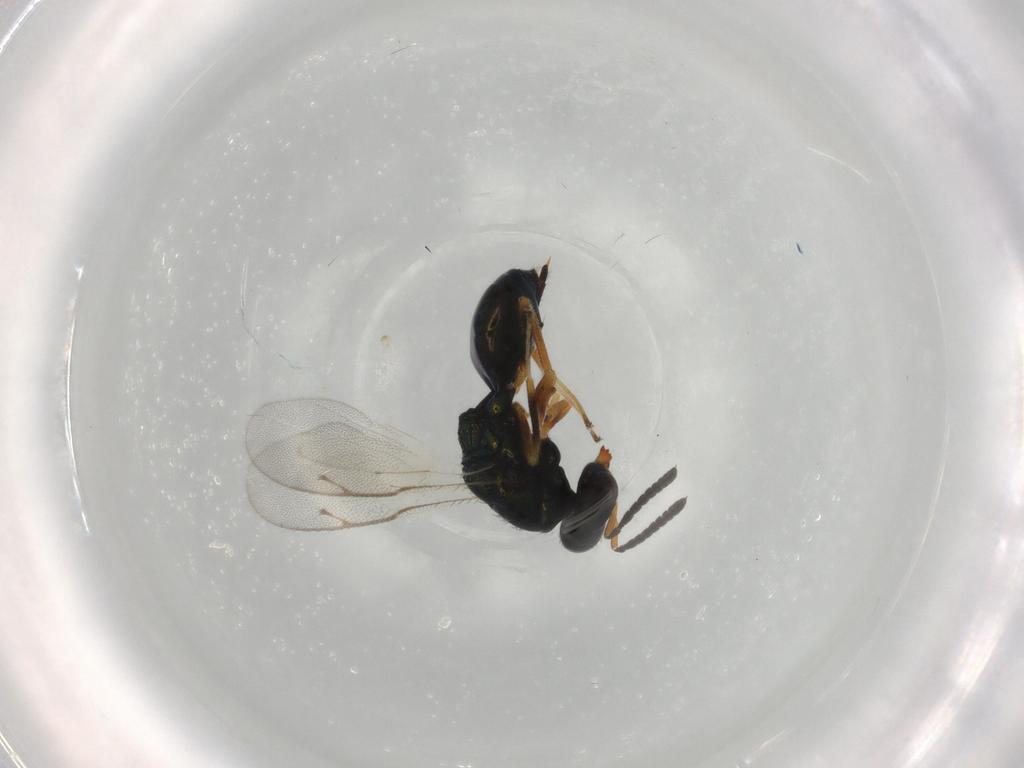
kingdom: Animalia
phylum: Arthropoda
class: Insecta
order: Hymenoptera
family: Pteromalidae
